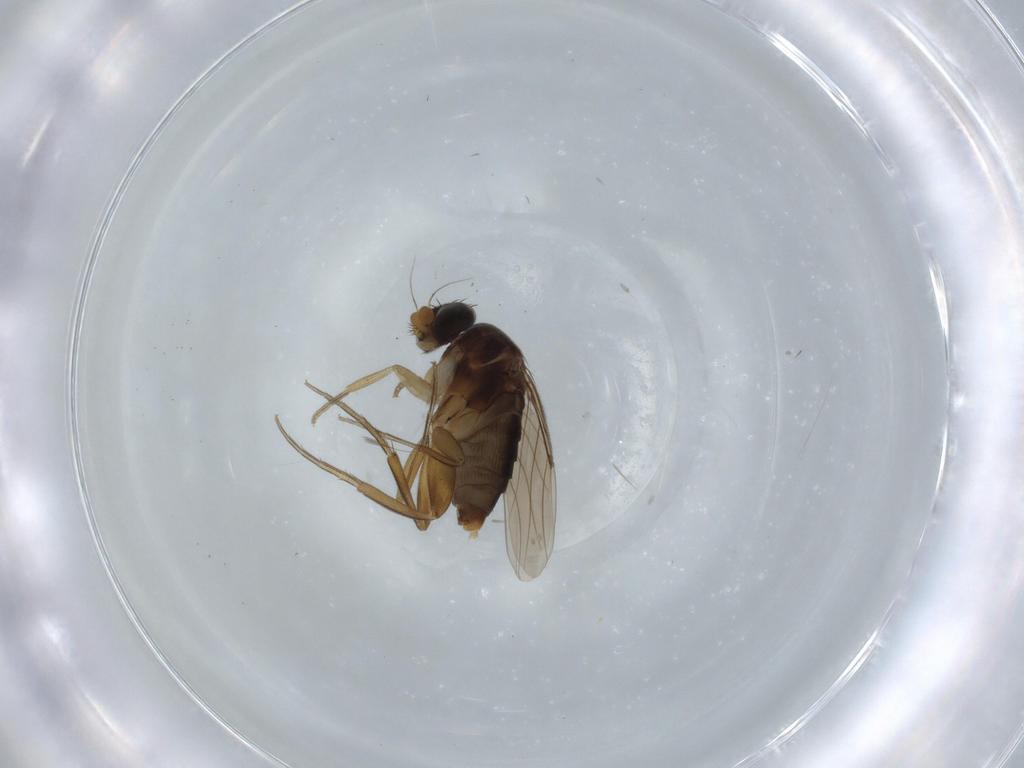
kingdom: Animalia
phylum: Arthropoda
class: Insecta
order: Diptera
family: Phoridae
